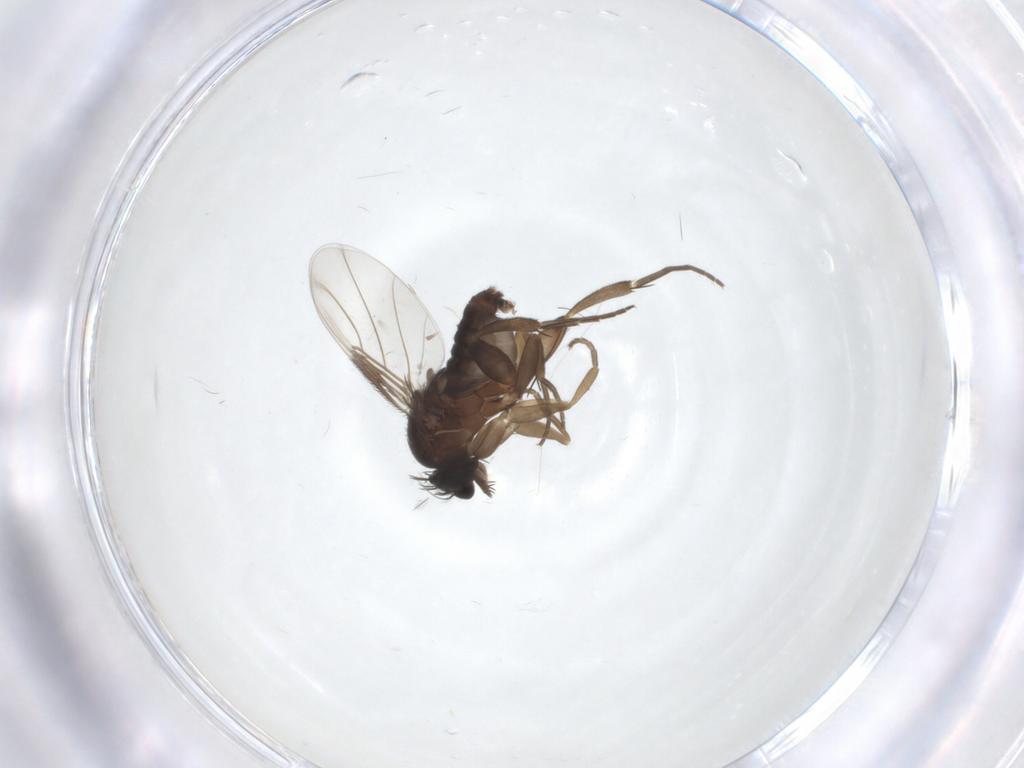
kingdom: Animalia
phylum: Arthropoda
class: Insecta
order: Diptera
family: Phoridae
